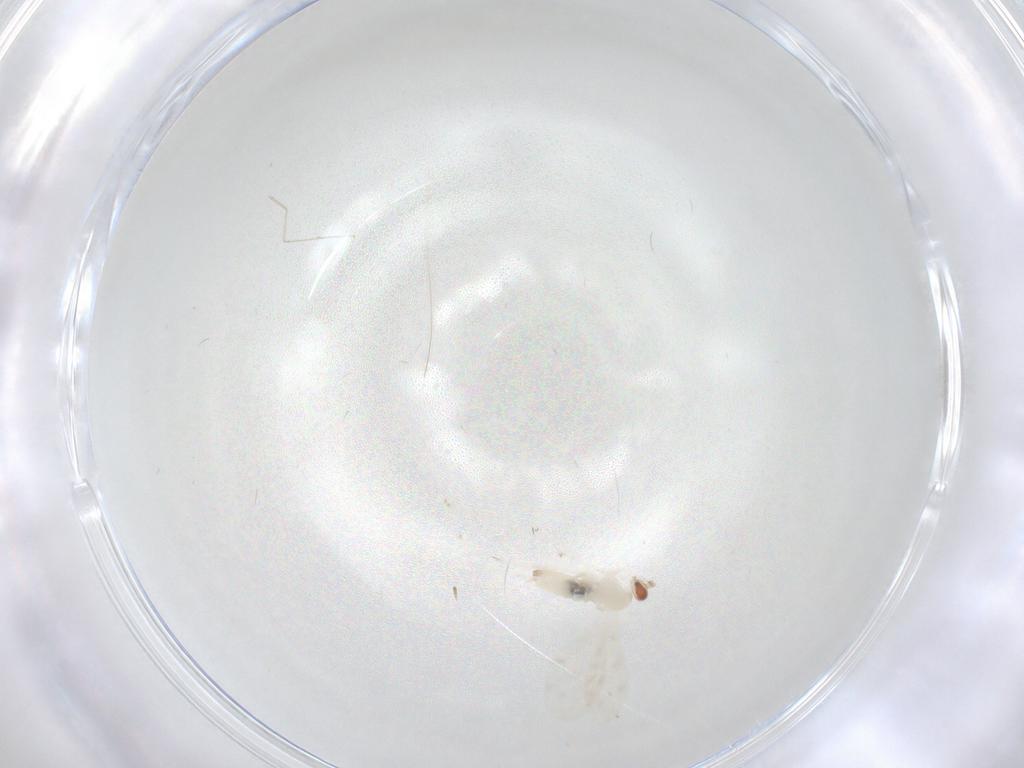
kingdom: Animalia
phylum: Arthropoda
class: Insecta
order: Diptera
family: Cecidomyiidae
